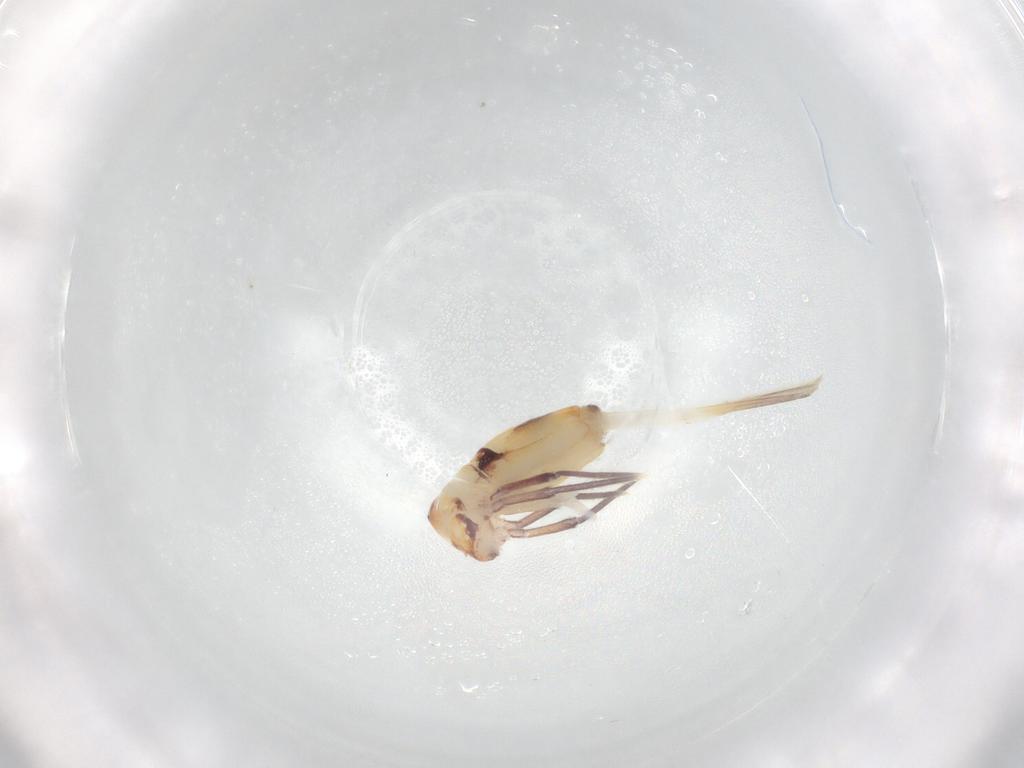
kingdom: Animalia
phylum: Arthropoda
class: Collembola
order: Entomobryomorpha
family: Entomobryidae
